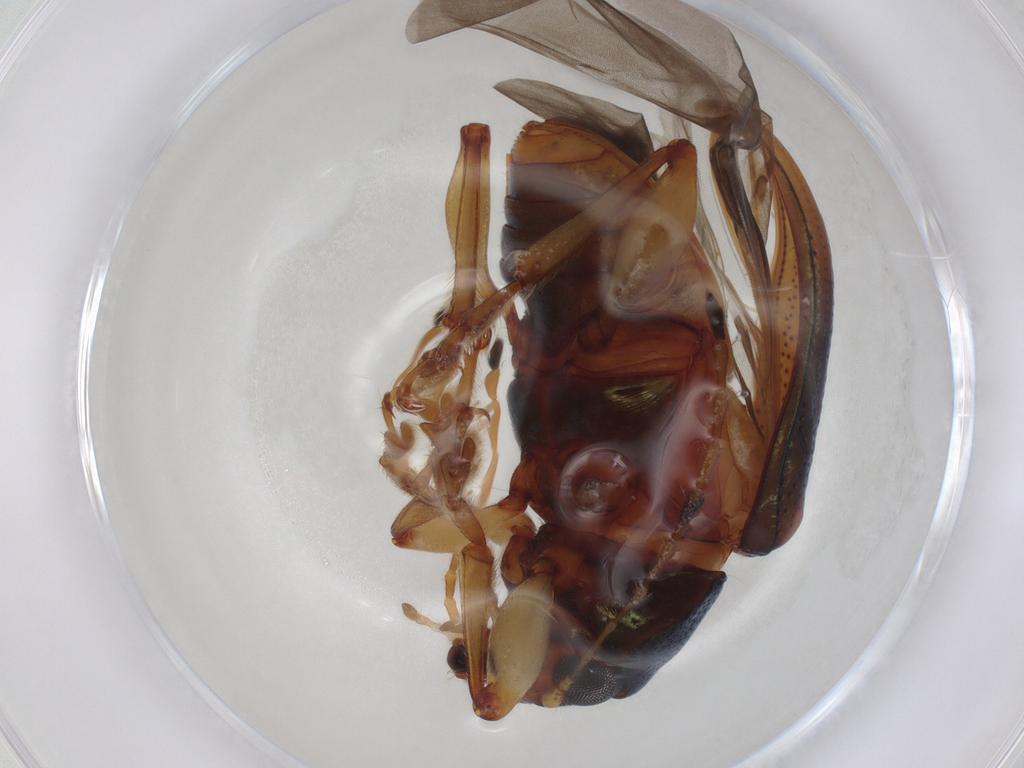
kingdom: Animalia
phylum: Arthropoda
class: Insecta
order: Coleoptera
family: Chrysomelidae
